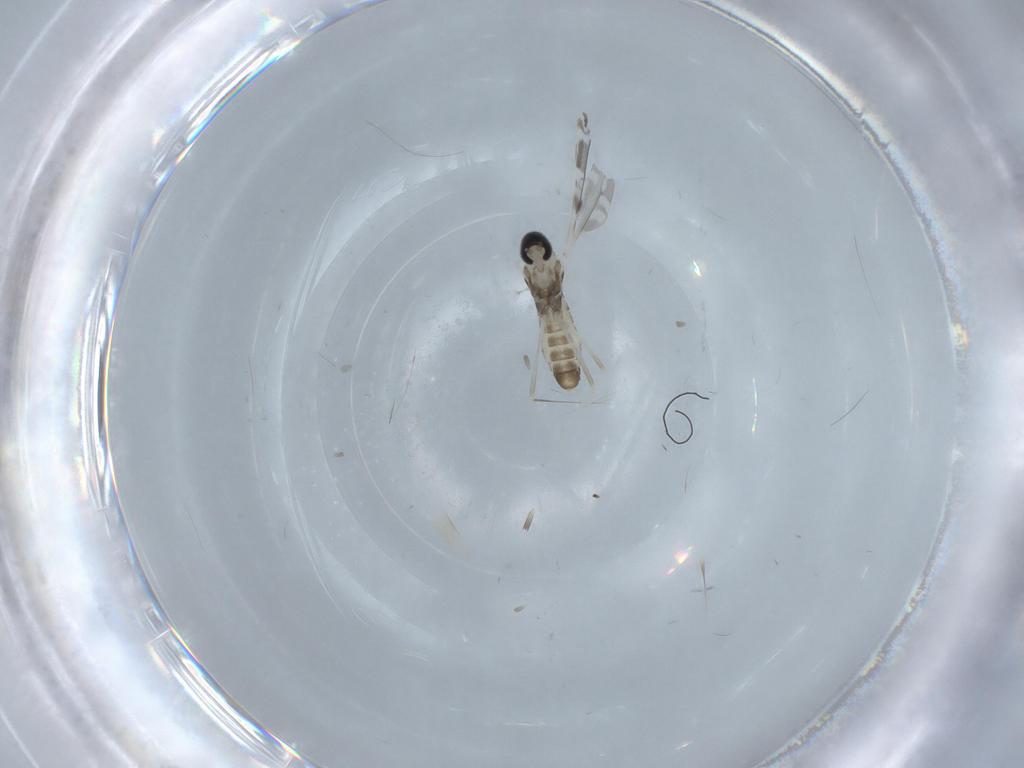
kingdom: Animalia
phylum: Arthropoda
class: Insecta
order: Diptera
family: Cecidomyiidae
